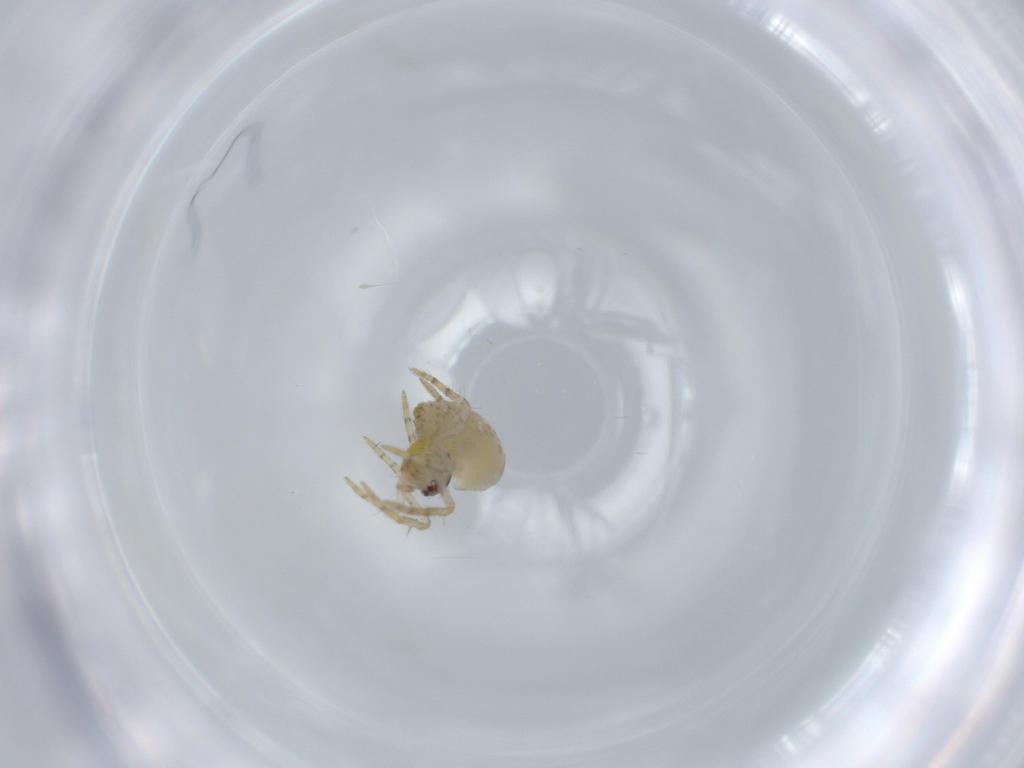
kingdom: Animalia
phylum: Arthropoda
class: Arachnida
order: Araneae
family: Theridiidae
